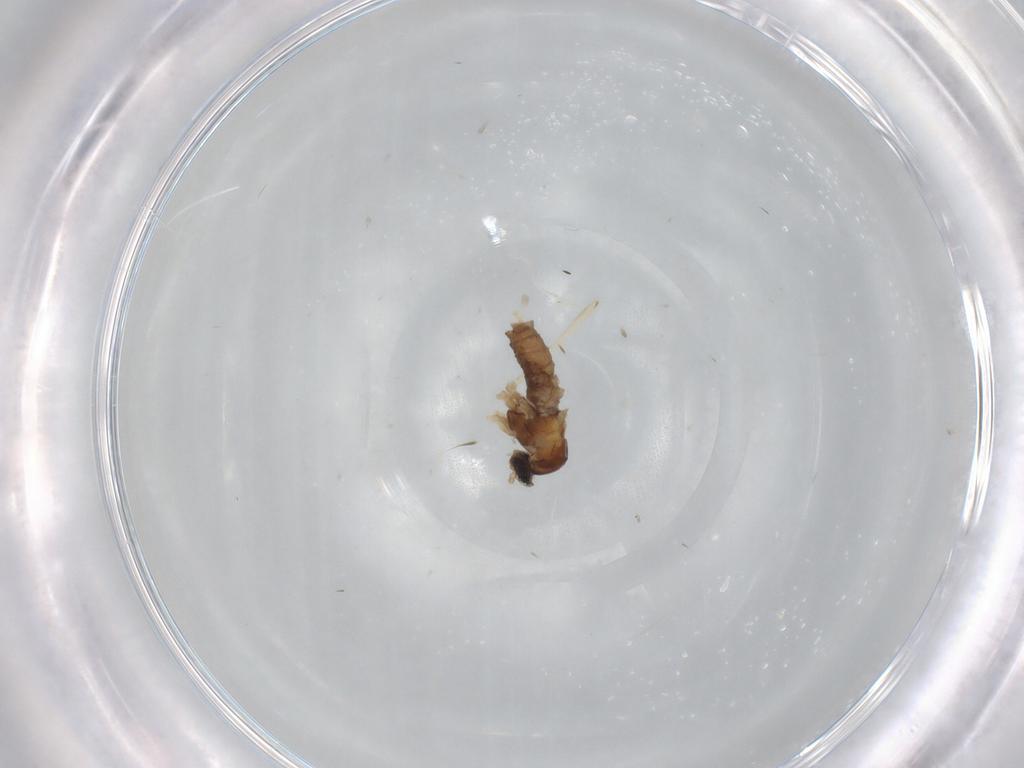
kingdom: Animalia
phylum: Arthropoda
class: Insecta
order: Diptera
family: Cecidomyiidae
